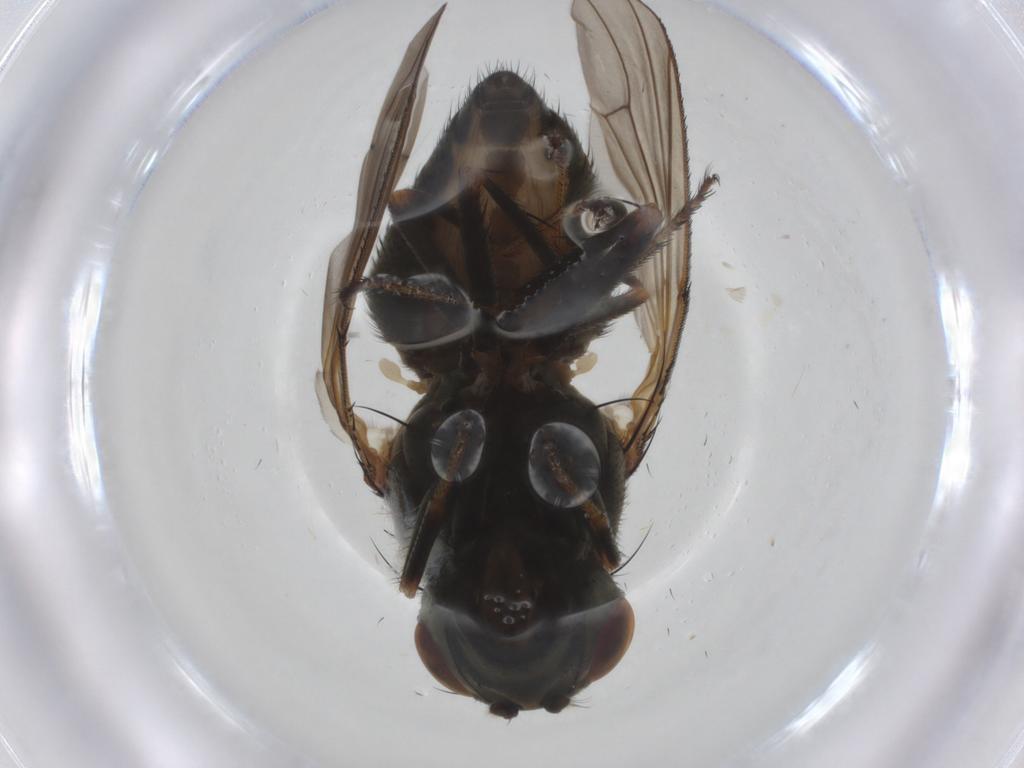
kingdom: Animalia
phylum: Arthropoda
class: Insecta
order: Diptera
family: Ephydridae
